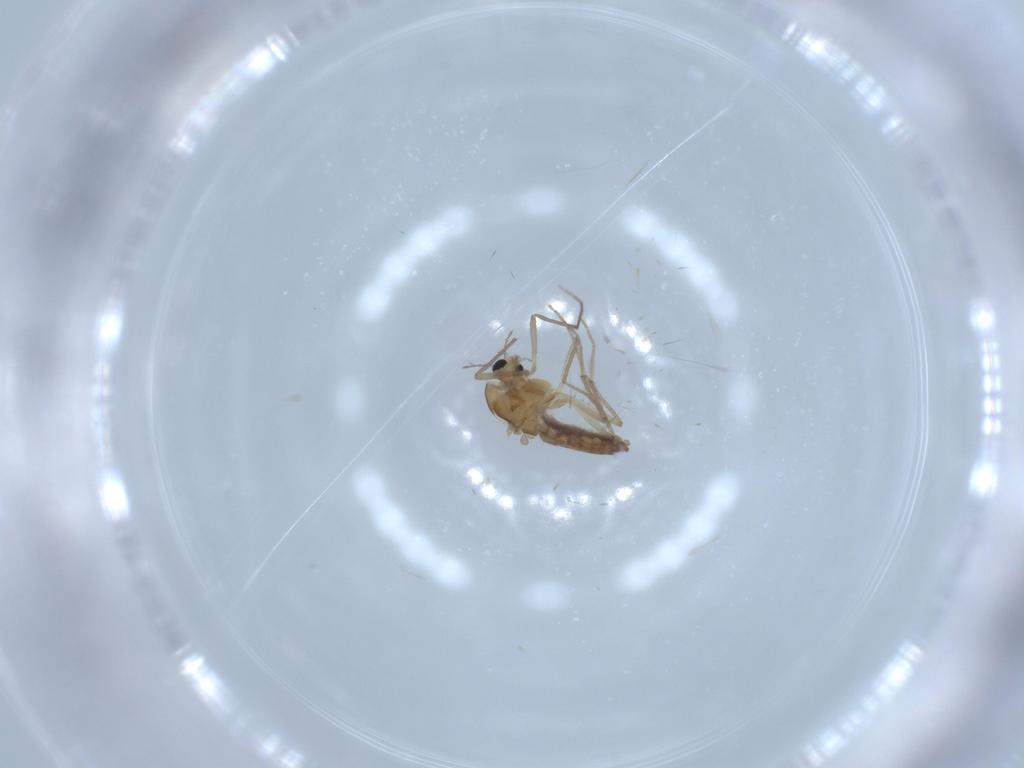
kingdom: Animalia
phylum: Arthropoda
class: Insecta
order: Diptera
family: Chironomidae
